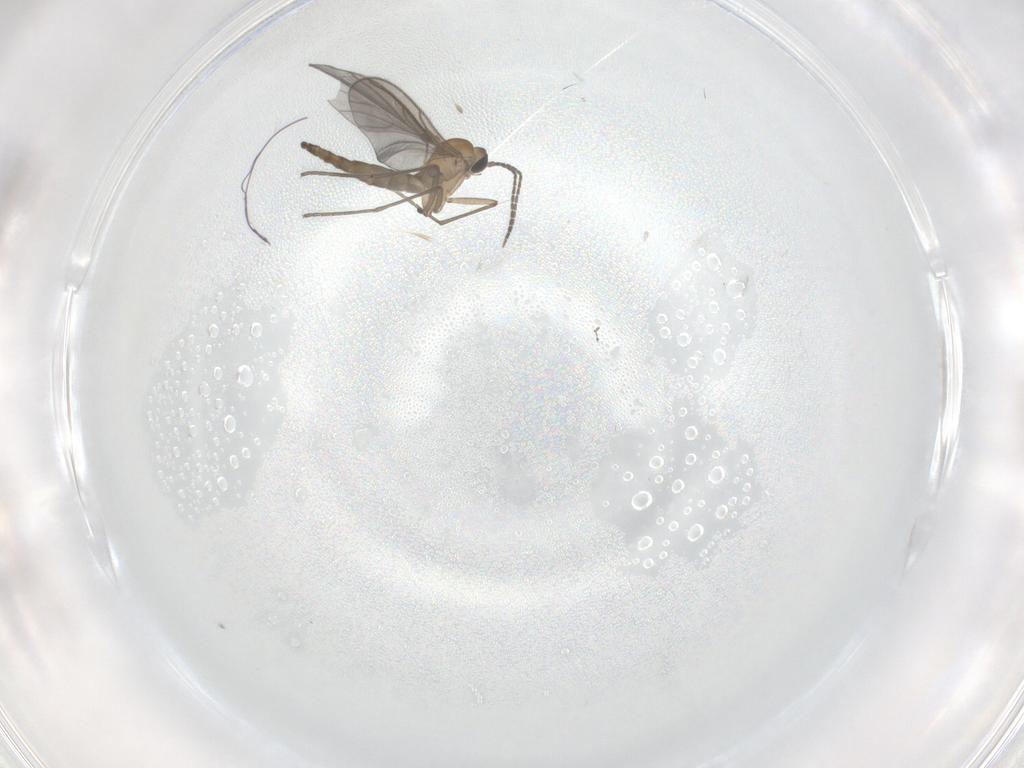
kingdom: Animalia
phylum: Arthropoda
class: Insecta
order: Diptera
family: Sciaridae
